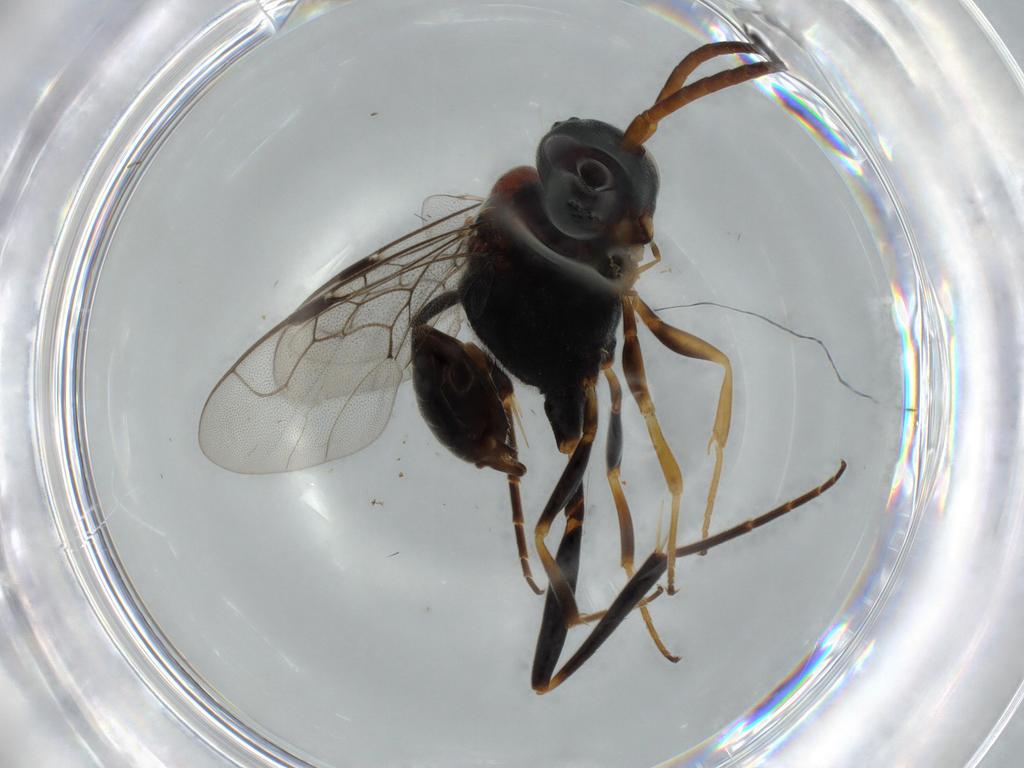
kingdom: Animalia
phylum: Arthropoda
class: Insecta
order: Hymenoptera
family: Evaniidae
